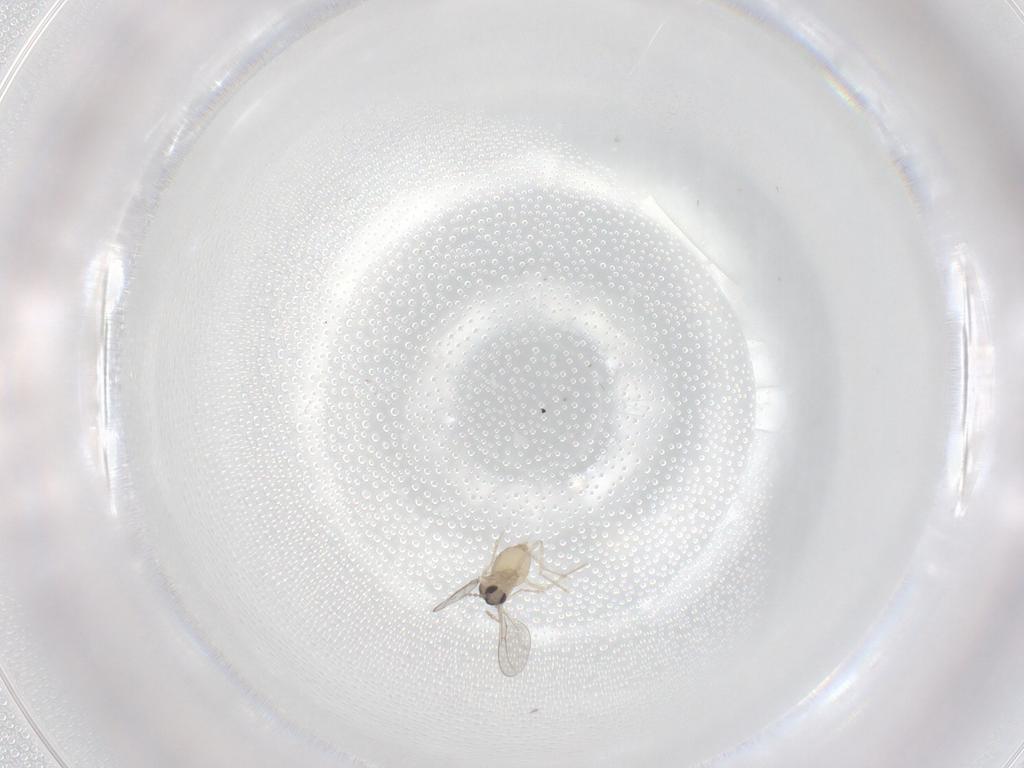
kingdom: Animalia
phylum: Arthropoda
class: Insecta
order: Diptera
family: Cecidomyiidae
